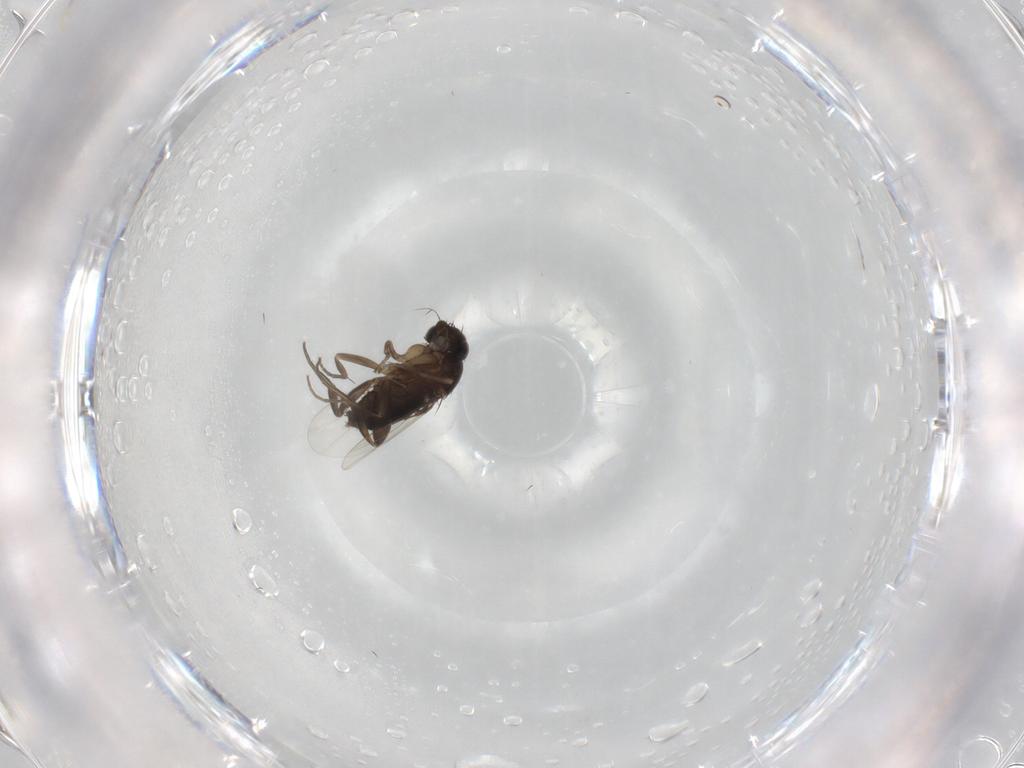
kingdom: Animalia
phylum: Arthropoda
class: Insecta
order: Diptera
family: Phoridae
